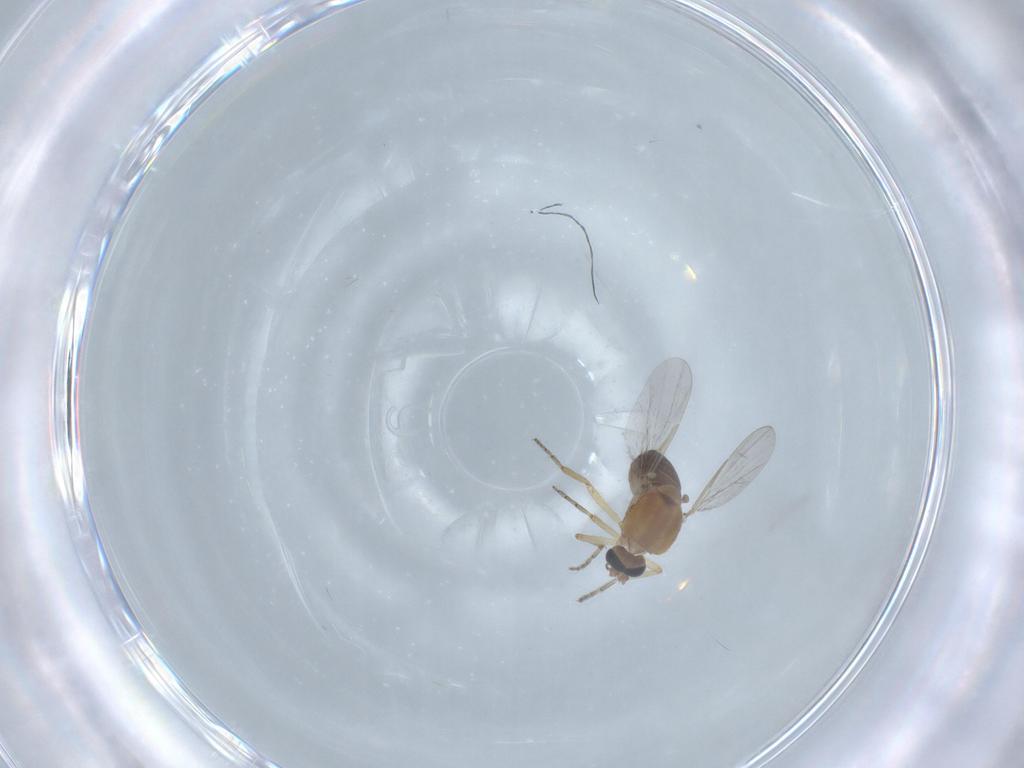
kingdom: Animalia
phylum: Arthropoda
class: Insecta
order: Diptera
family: Ceratopogonidae
